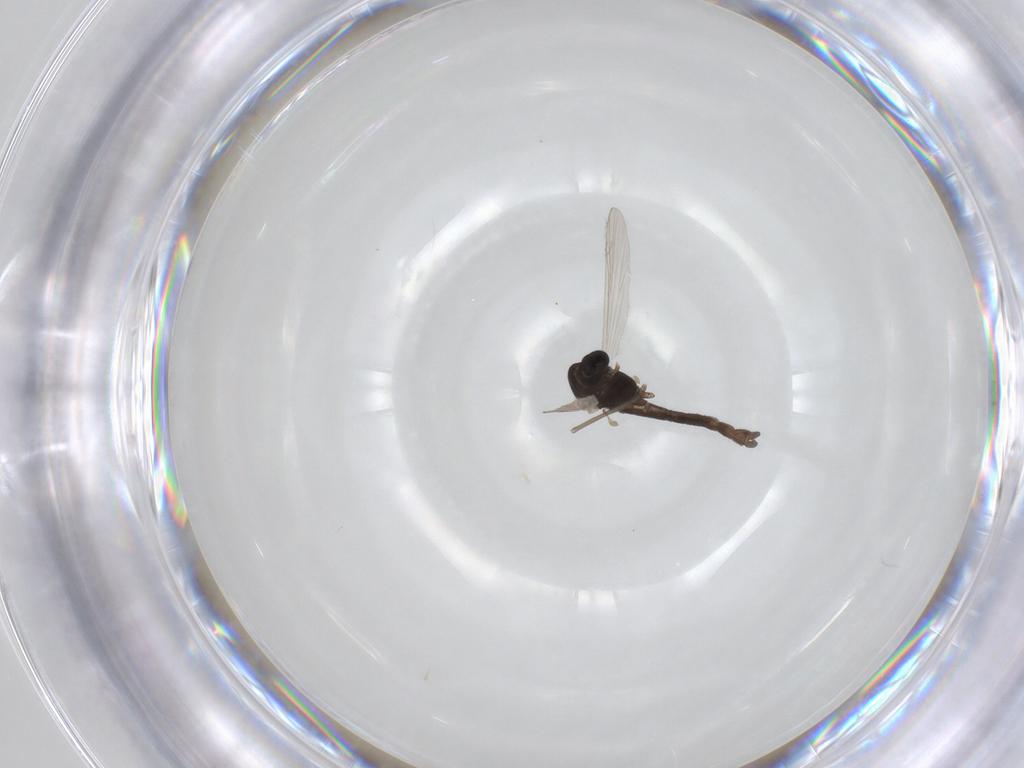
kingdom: Animalia
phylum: Arthropoda
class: Insecta
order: Diptera
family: Chironomidae
